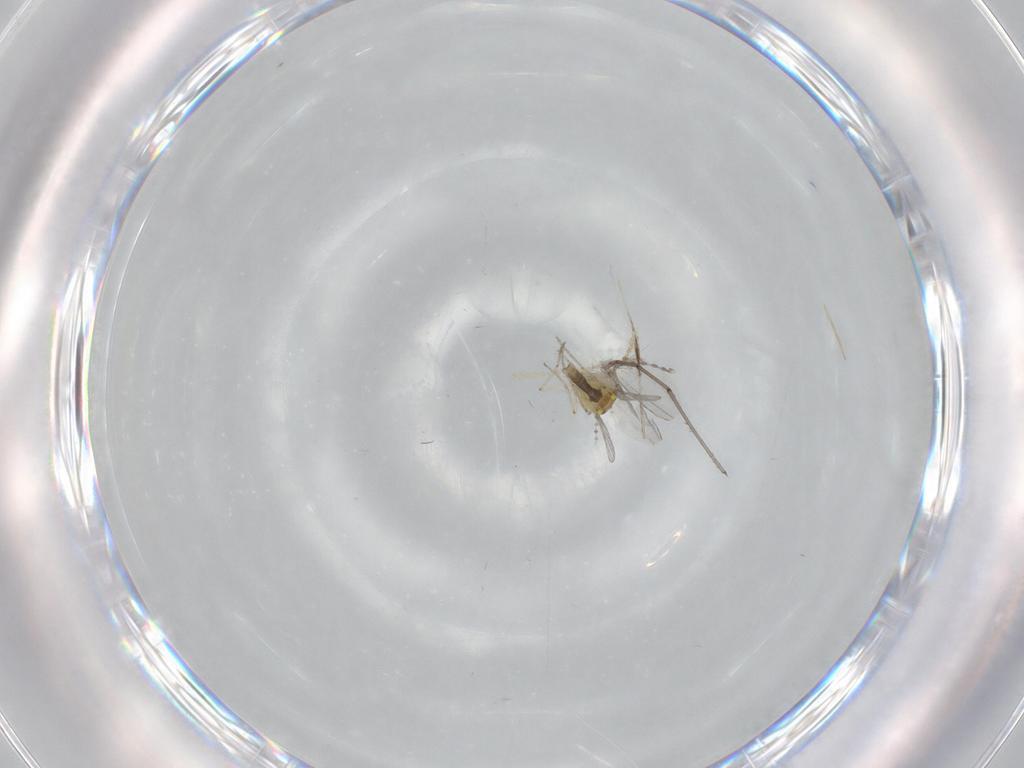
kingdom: Animalia
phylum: Arthropoda
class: Insecta
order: Diptera
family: Ceratopogonidae
